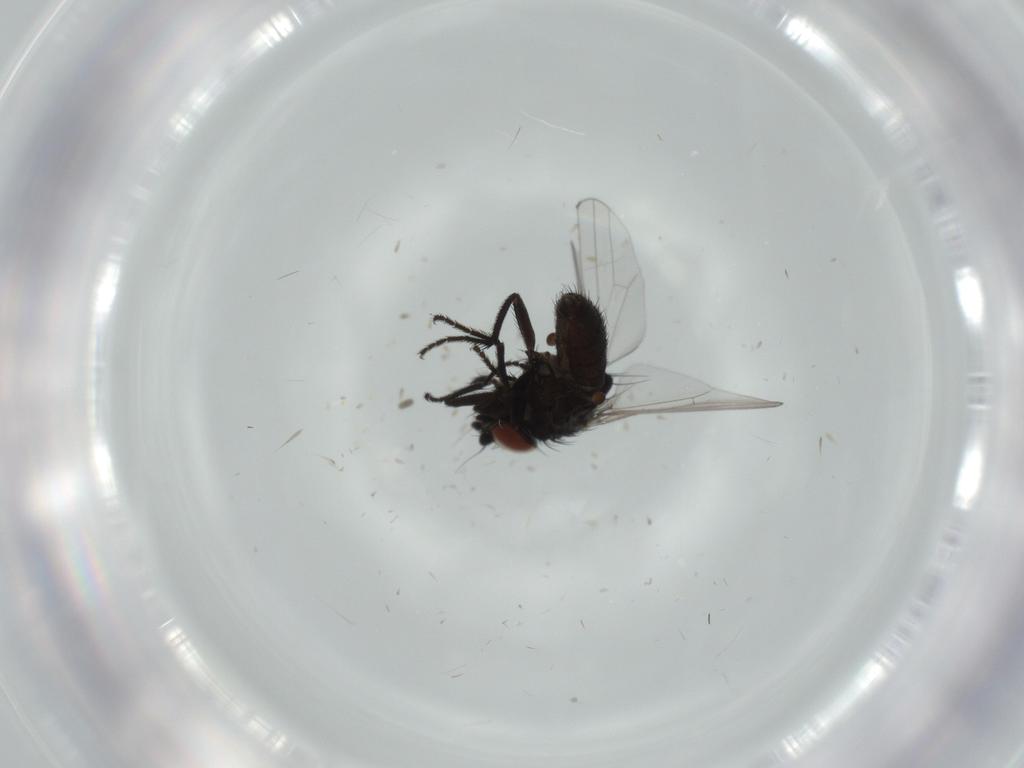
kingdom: Animalia
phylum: Arthropoda
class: Insecta
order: Diptera
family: Milichiidae
